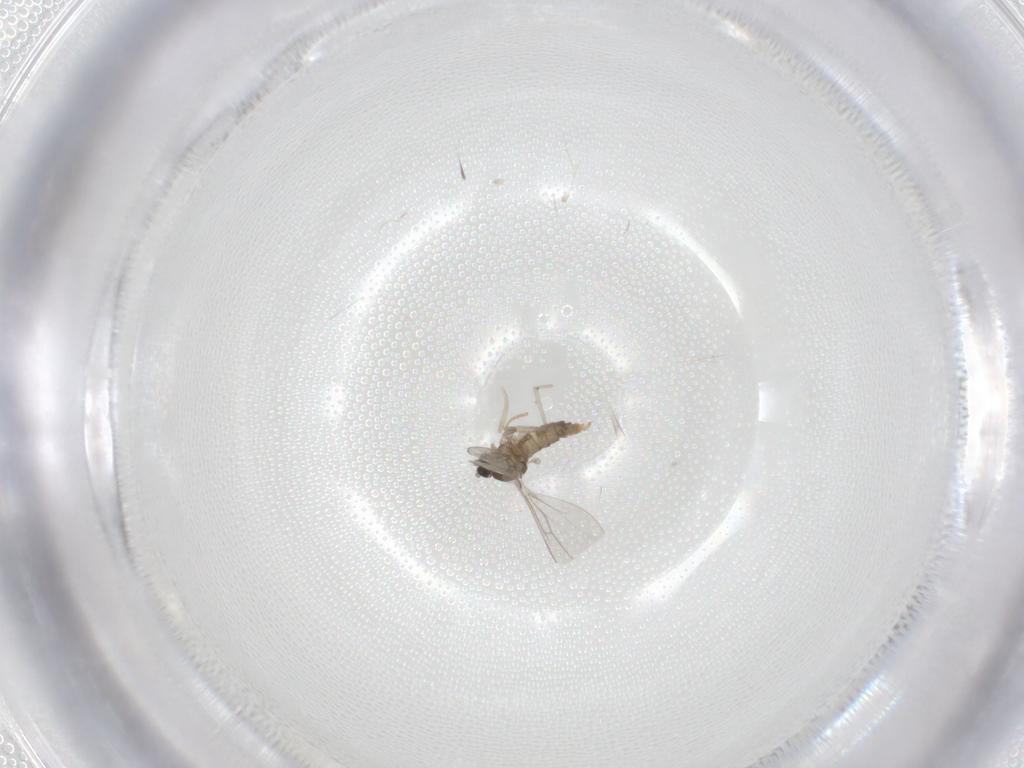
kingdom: Animalia
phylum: Arthropoda
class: Insecta
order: Diptera
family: Cecidomyiidae
